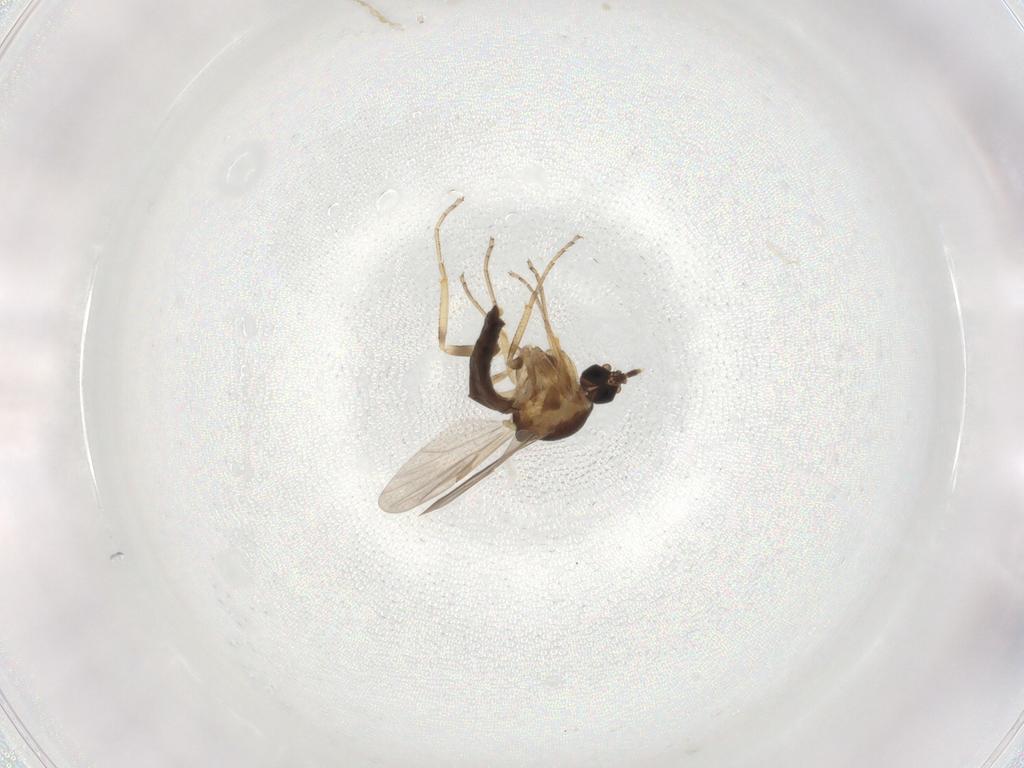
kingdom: Animalia
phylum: Arthropoda
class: Insecta
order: Diptera
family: Ceratopogonidae
